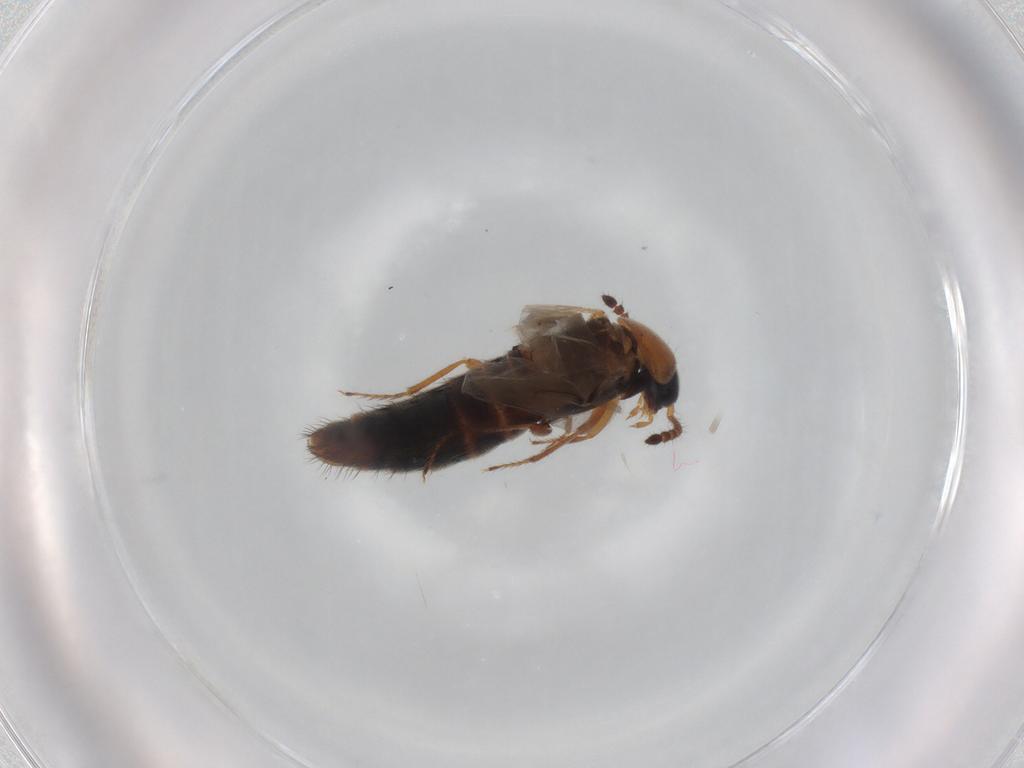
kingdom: Animalia
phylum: Arthropoda
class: Insecta
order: Coleoptera
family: Staphylinidae
